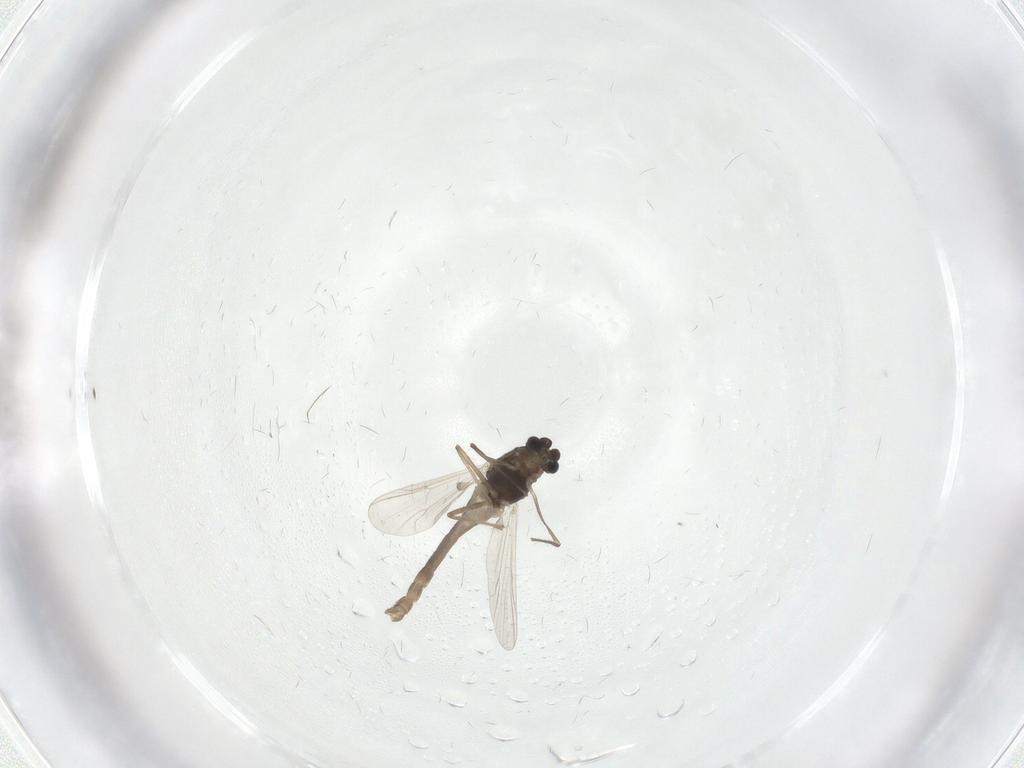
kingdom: Animalia
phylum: Arthropoda
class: Insecta
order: Diptera
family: Chironomidae
